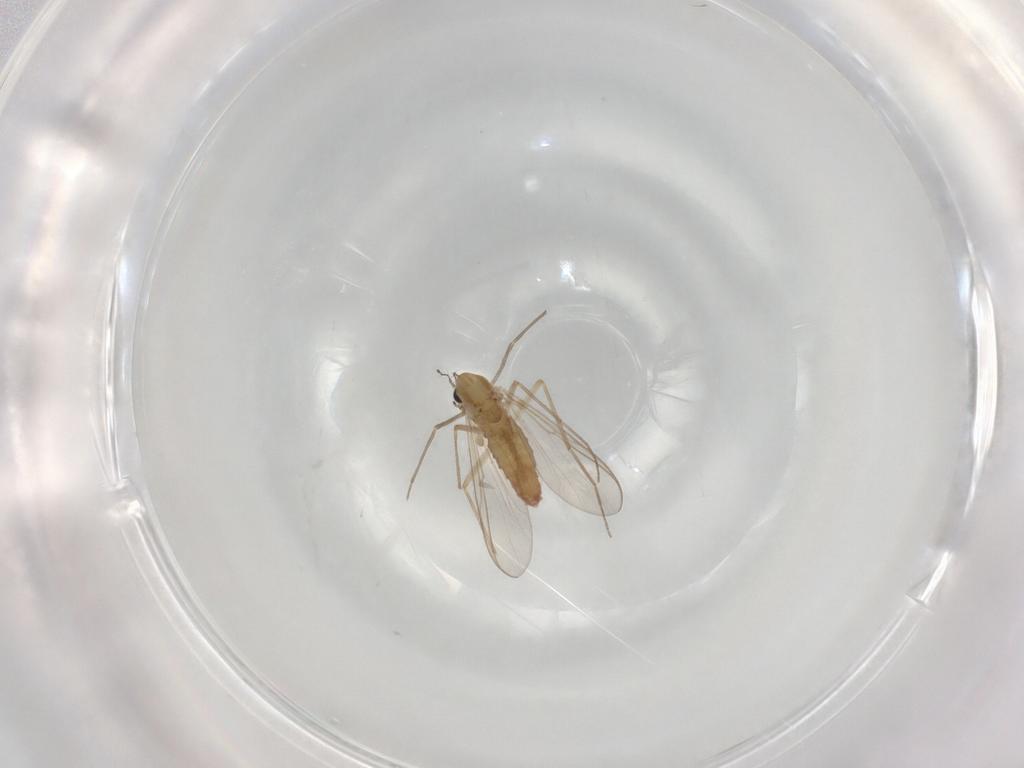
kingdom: Animalia
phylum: Arthropoda
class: Insecta
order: Diptera
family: Chironomidae
